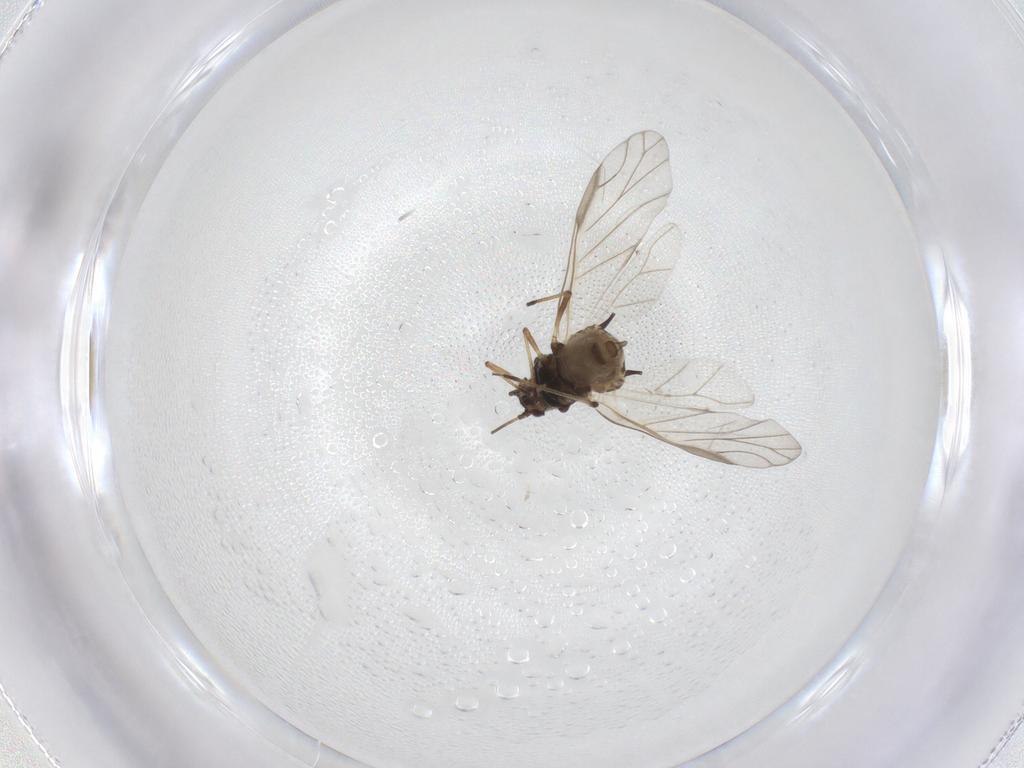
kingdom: Animalia
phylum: Arthropoda
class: Insecta
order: Hemiptera
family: Aphididae
